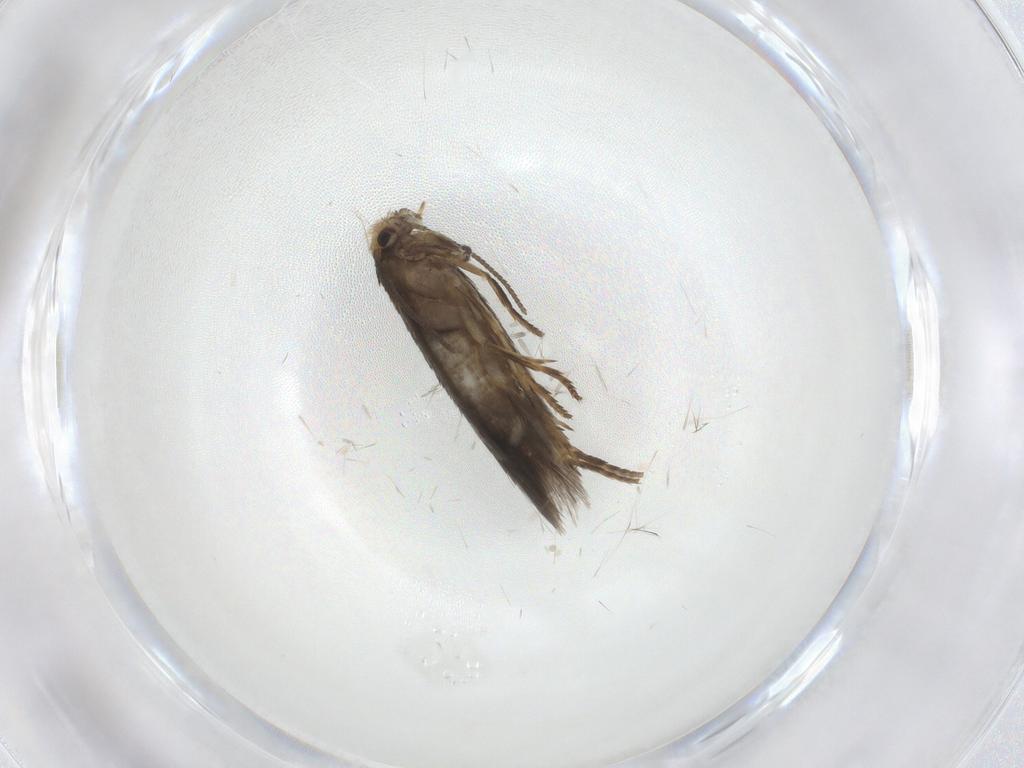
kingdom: Animalia
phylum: Arthropoda
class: Insecta
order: Lepidoptera
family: Nepticulidae
